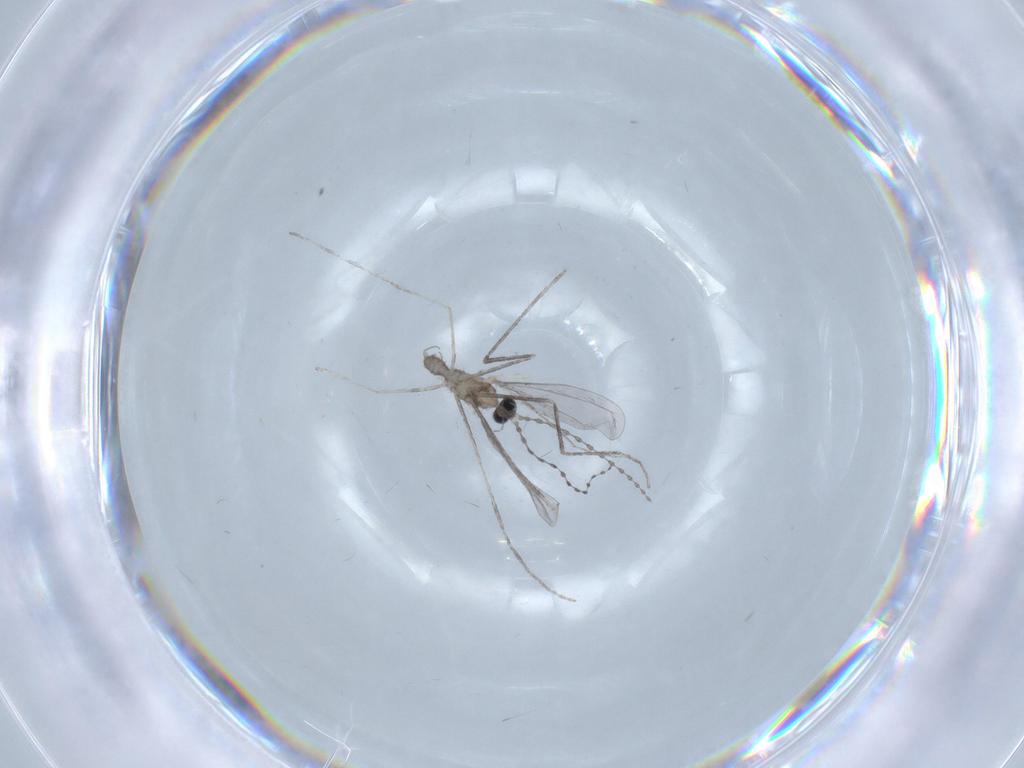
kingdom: Animalia
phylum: Arthropoda
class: Insecta
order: Diptera
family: Cecidomyiidae
